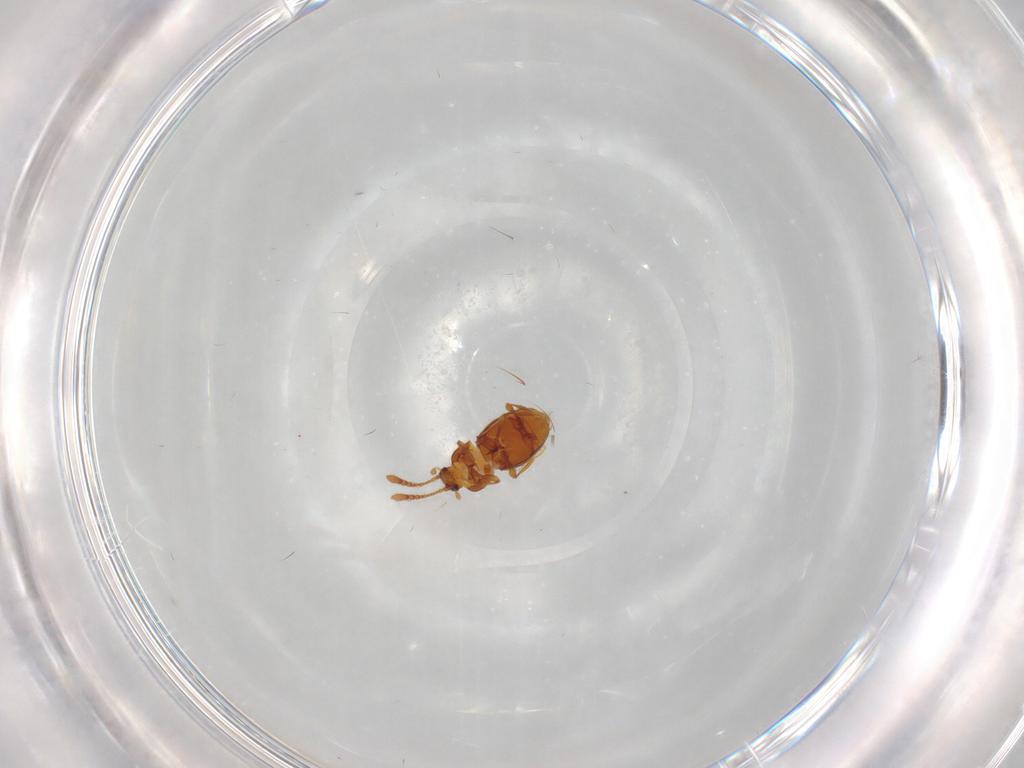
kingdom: Animalia
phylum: Arthropoda
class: Insecta
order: Coleoptera
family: Staphylinidae
